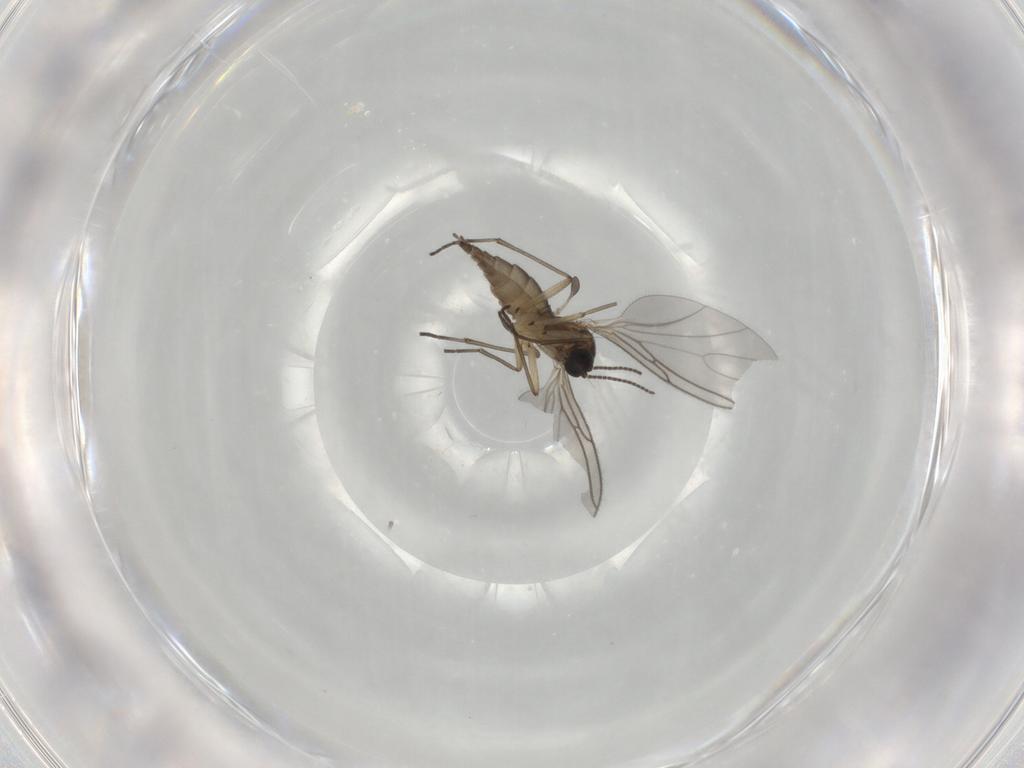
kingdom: Animalia
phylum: Arthropoda
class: Insecta
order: Diptera
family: Sciaridae
